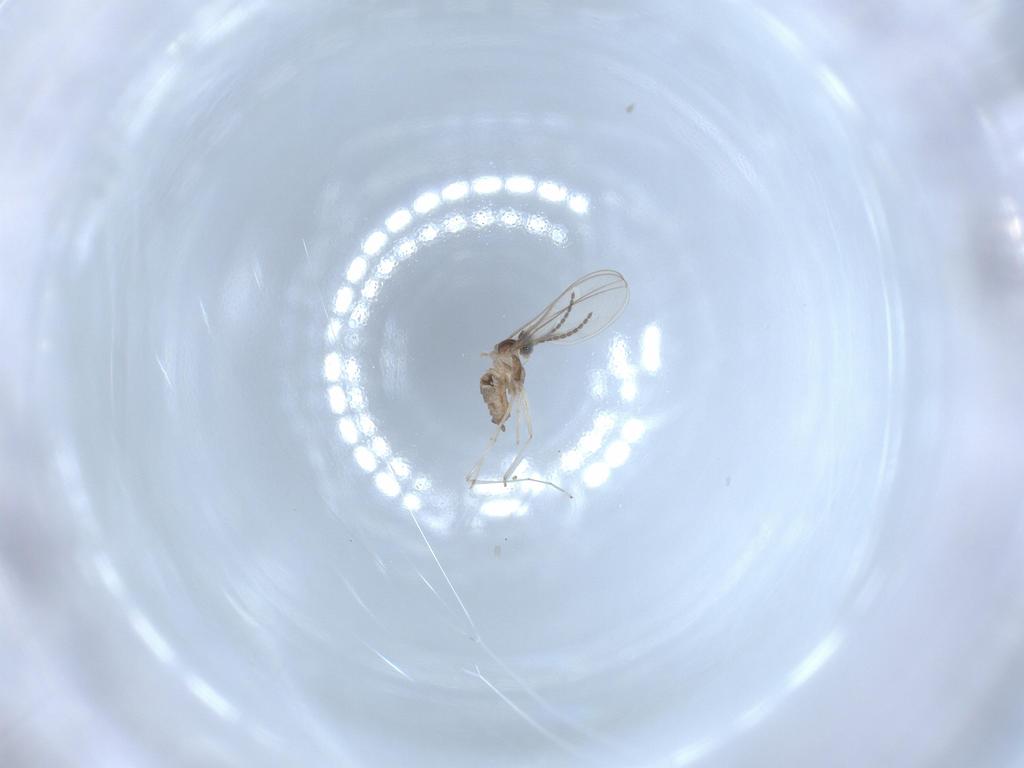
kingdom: Animalia
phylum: Arthropoda
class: Insecta
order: Diptera
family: Cecidomyiidae
